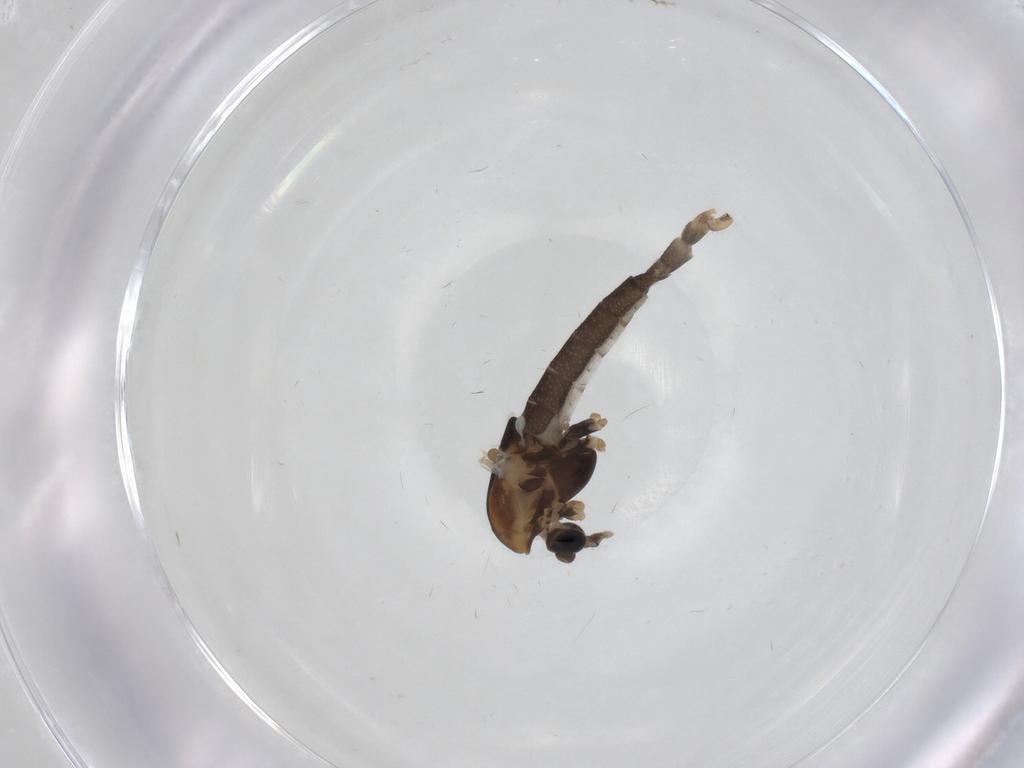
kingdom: Animalia
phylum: Arthropoda
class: Insecta
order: Diptera
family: Chironomidae
